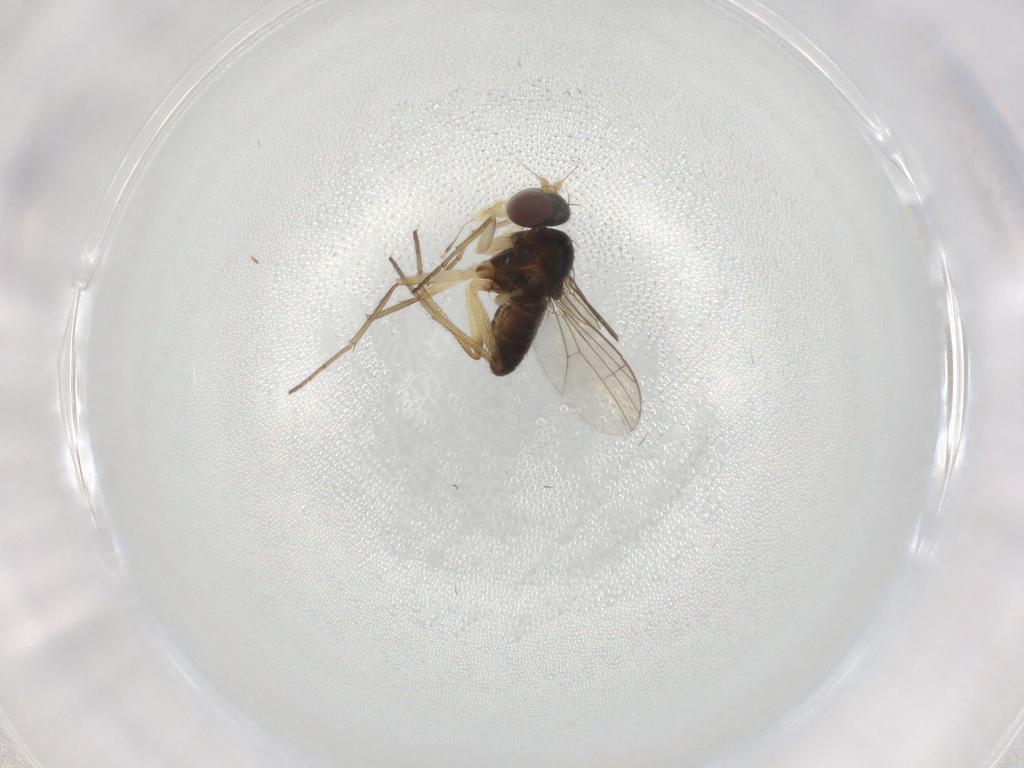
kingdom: Animalia
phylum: Arthropoda
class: Insecta
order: Diptera
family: Dolichopodidae
